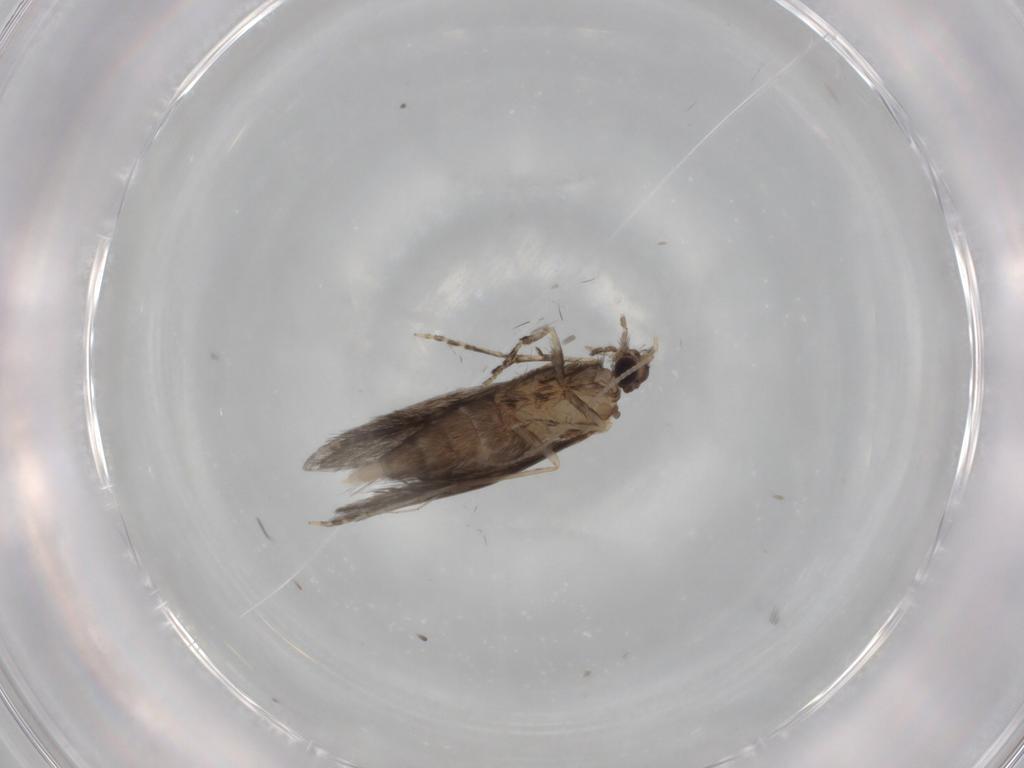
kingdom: Animalia
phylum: Arthropoda
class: Insecta
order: Trichoptera
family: Hydroptilidae
